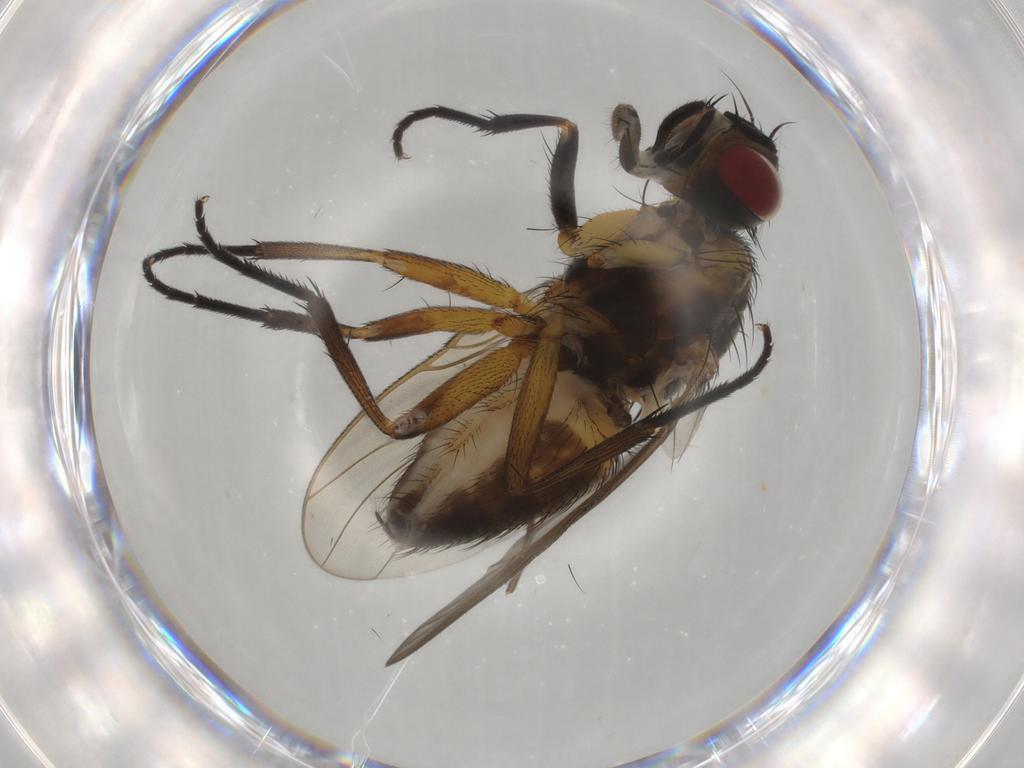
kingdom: Animalia
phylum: Arthropoda
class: Insecta
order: Diptera
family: Muscidae
